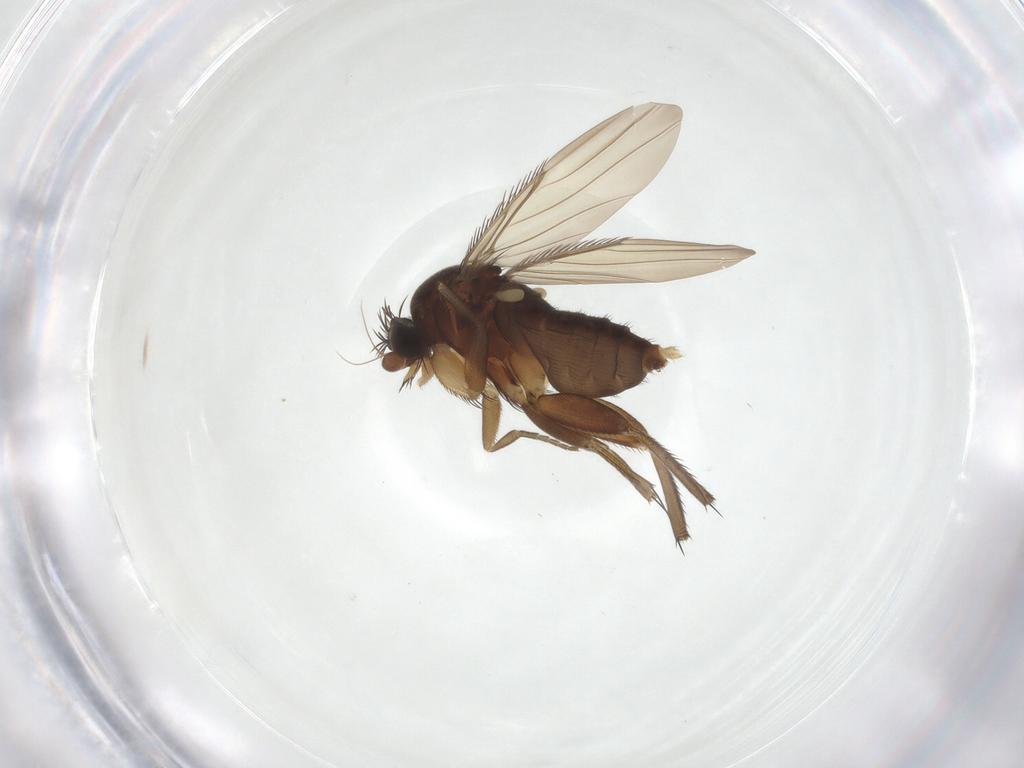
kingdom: Animalia
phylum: Arthropoda
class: Insecta
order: Diptera
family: Phoridae
